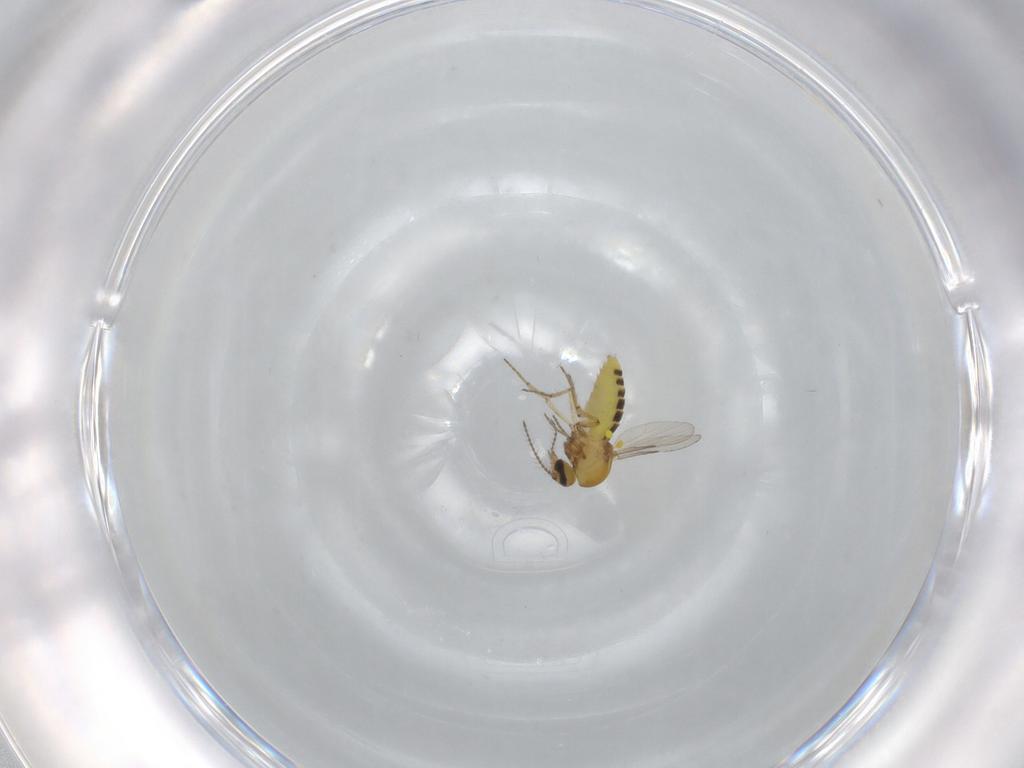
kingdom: Animalia
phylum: Arthropoda
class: Insecta
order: Diptera
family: Ceratopogonidae
